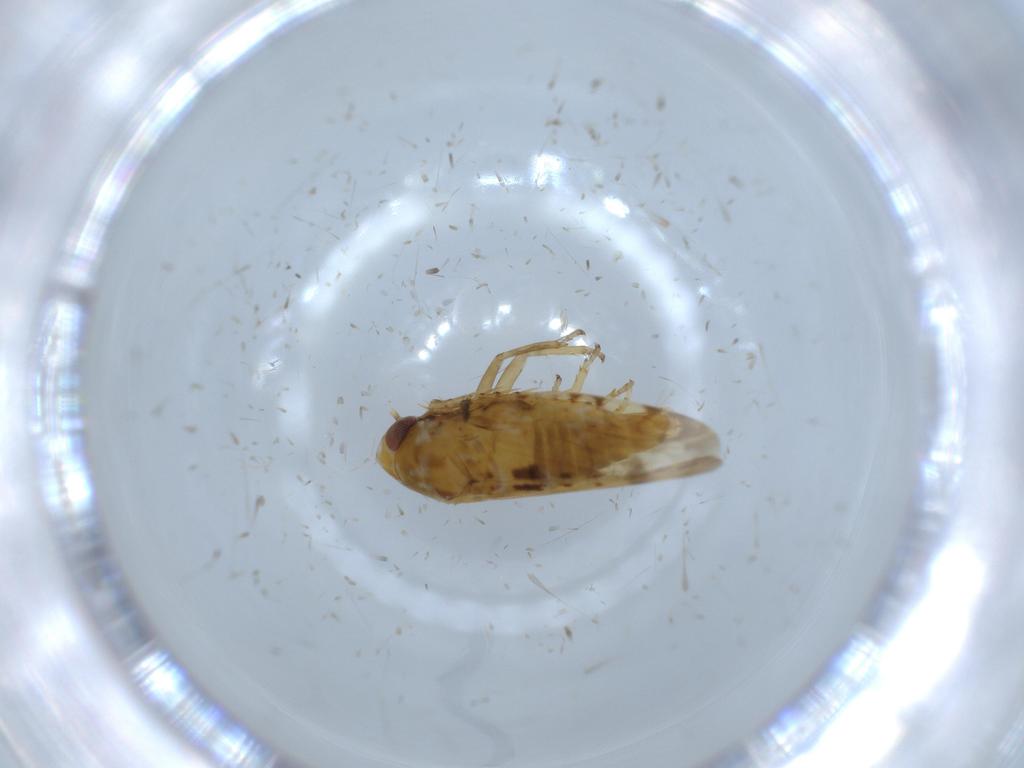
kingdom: Animalia
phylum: Arthropoda
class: Insecta
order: Hemiptera
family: Cicadellidae
